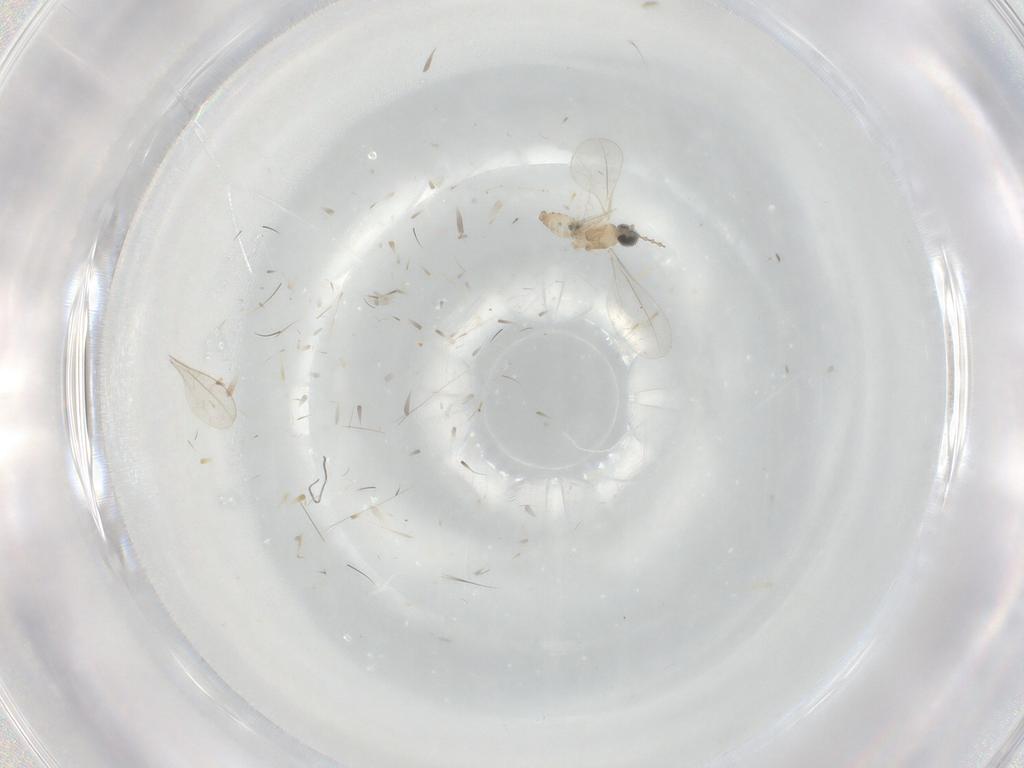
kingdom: Animalia
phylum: Arthropoda
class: Insecta
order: Diptera
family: Cecidomyiidae
